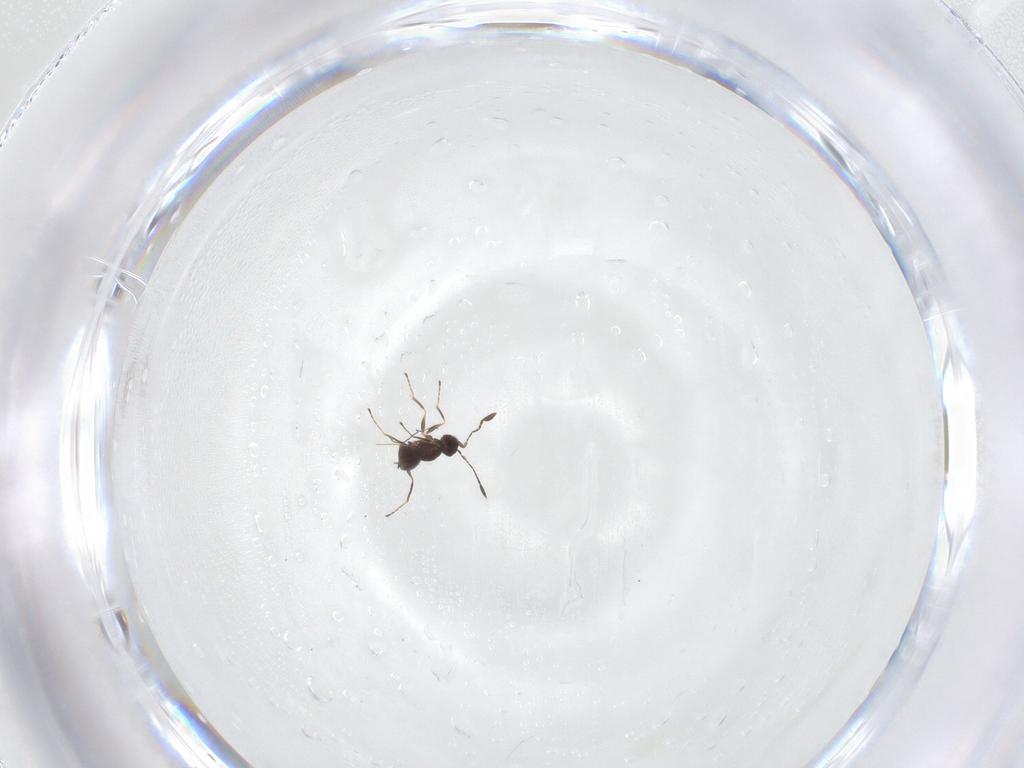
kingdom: Animalia
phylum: Arthropoda
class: Insecta
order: Hymenoptera
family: Mymaridae
